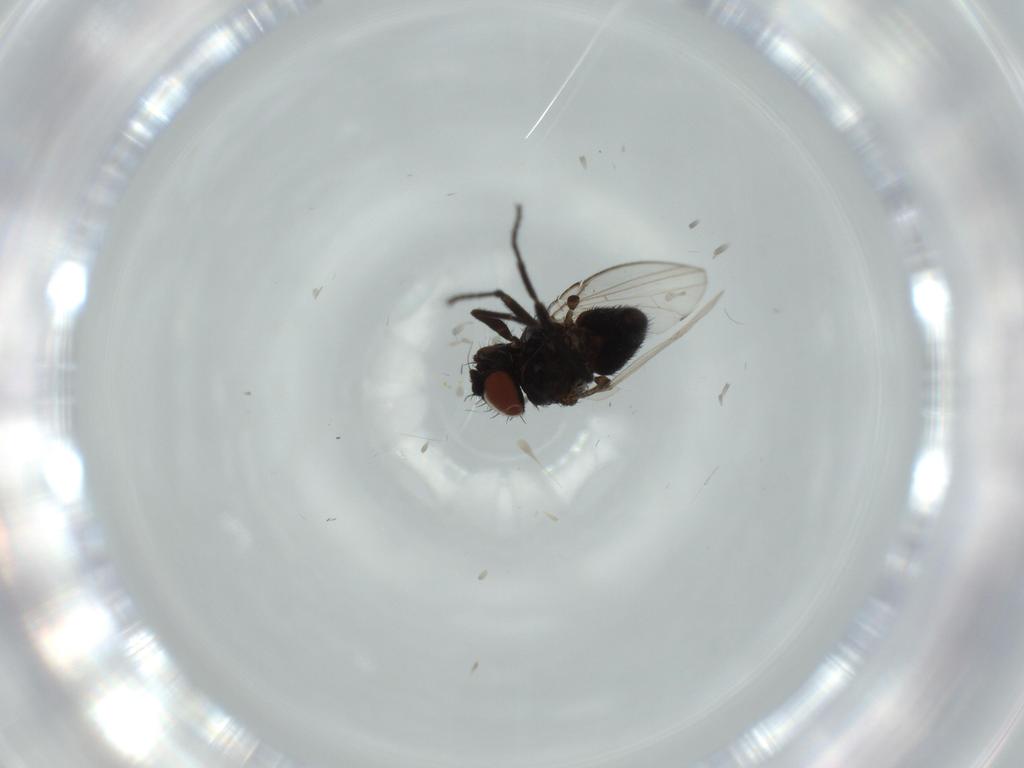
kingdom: Animalia
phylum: Arthropoda
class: Insecta
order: Diptera
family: Milichiidae
